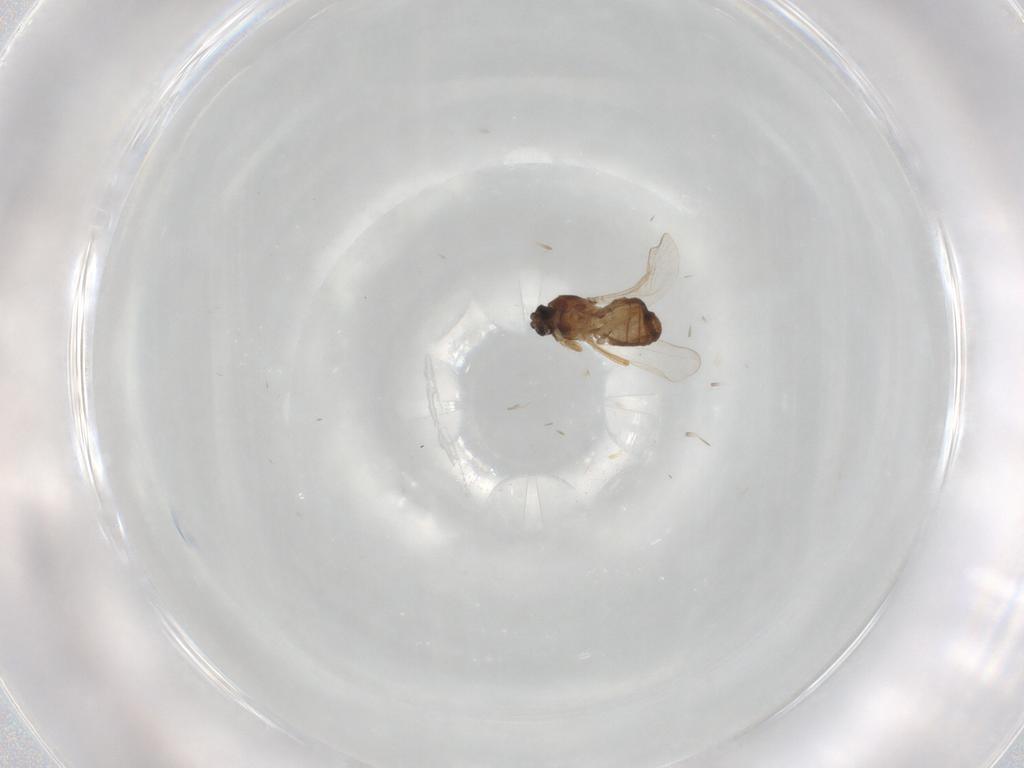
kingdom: Animalia
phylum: Arthropoda
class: Insecta
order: Diptera
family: Ceratopogonidae
